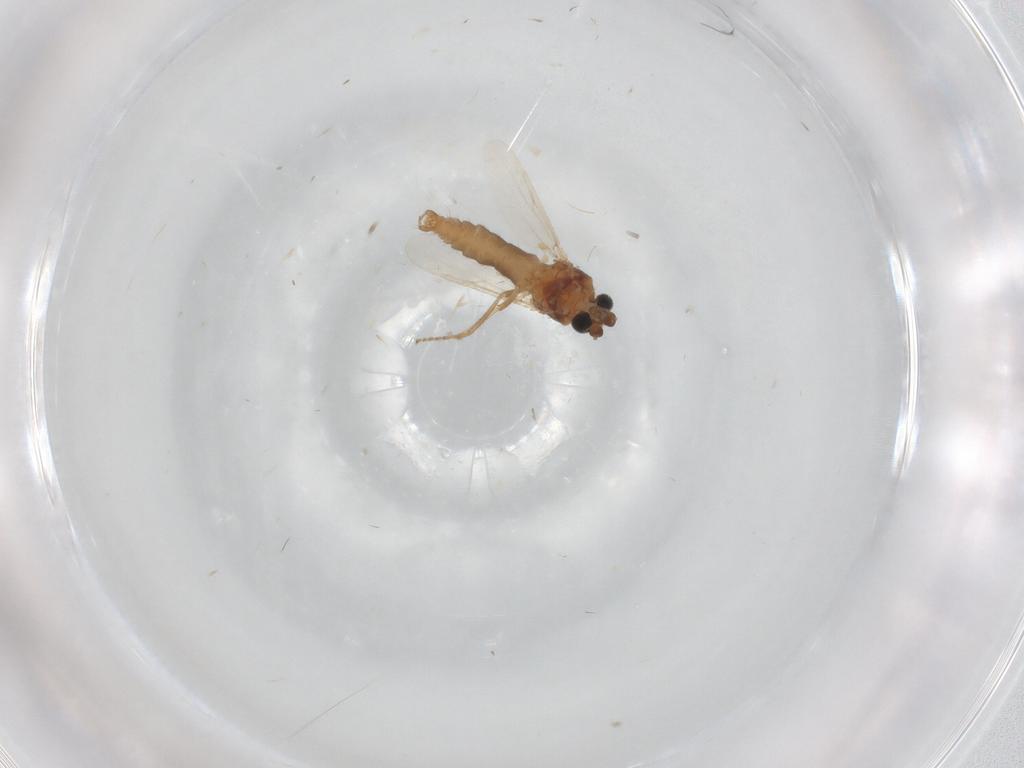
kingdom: Animalia
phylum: Arthropoda
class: Insecta
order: Diptera
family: Ceratopogonidae
